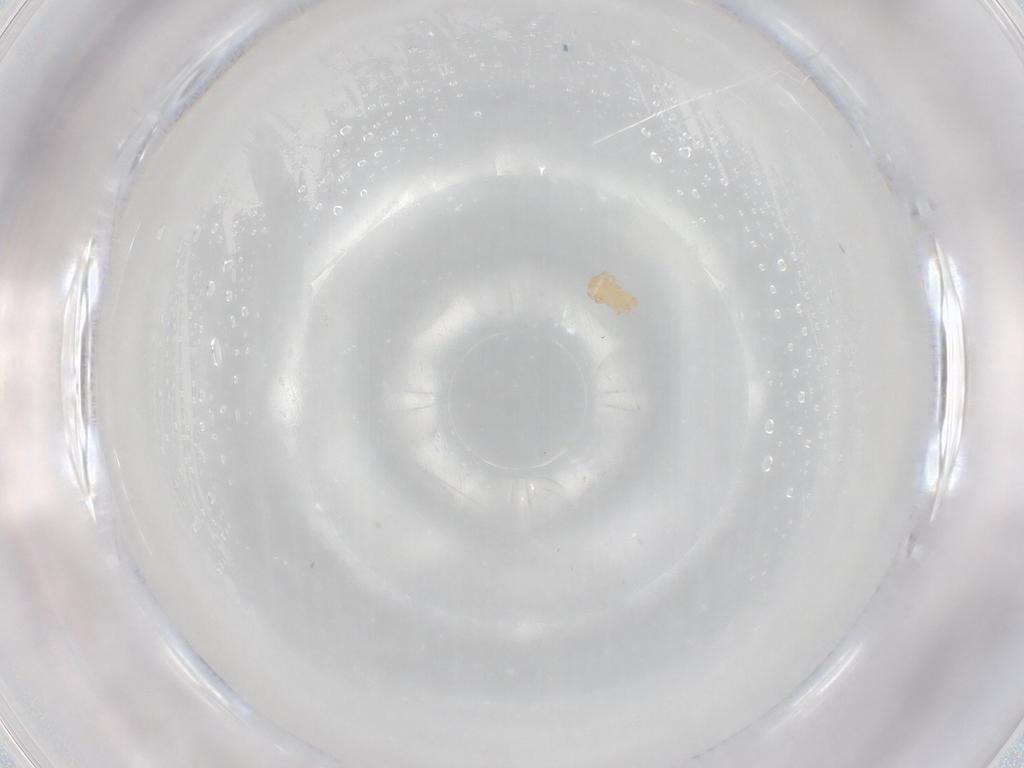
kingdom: Animalia
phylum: Arthropoda
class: Arachnida
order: Mesostigmata
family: Digamasellidae
